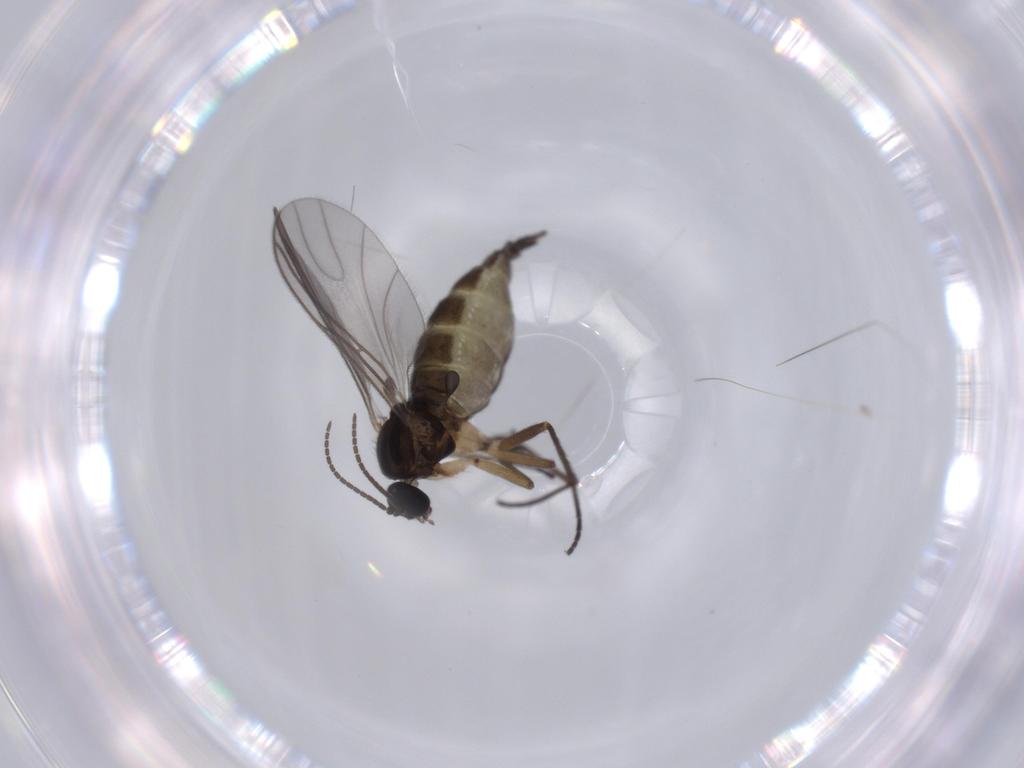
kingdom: Animalia
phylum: Arthropoda
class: Insecta
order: Diptera
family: Sciaridae
